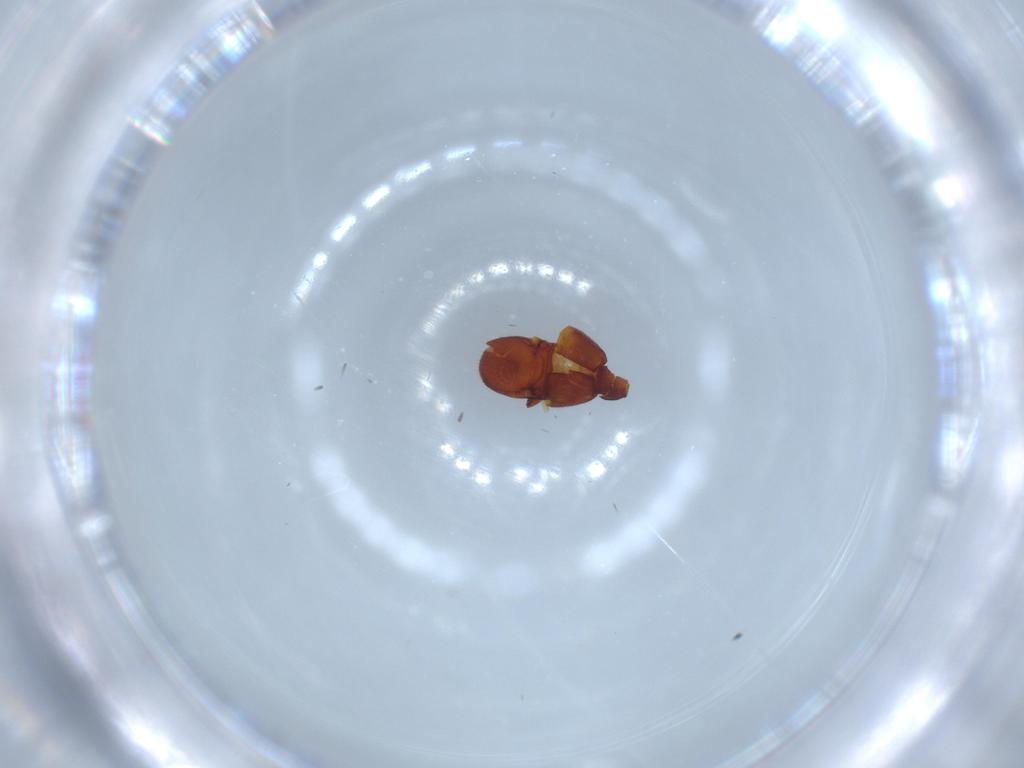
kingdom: Animalia
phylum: Arthropoda
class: Insecta
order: Coleoptera
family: Staphylinidae
